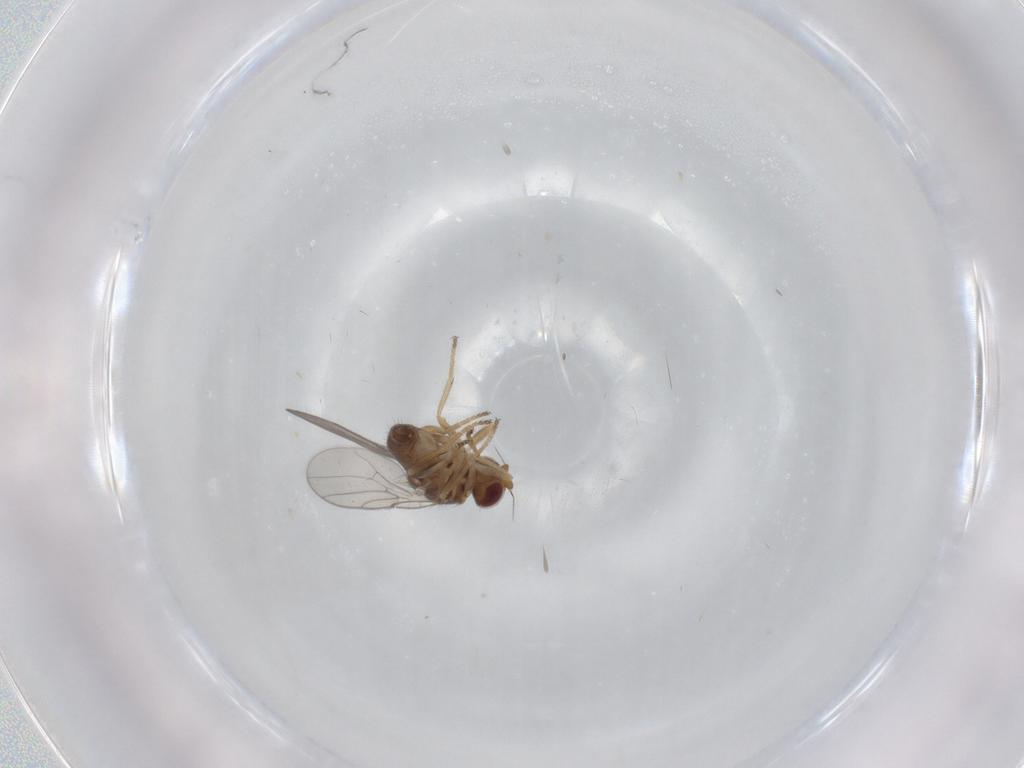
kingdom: Animalia
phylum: Arthropoda
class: Insecta
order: Diptera
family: Chloropidae
